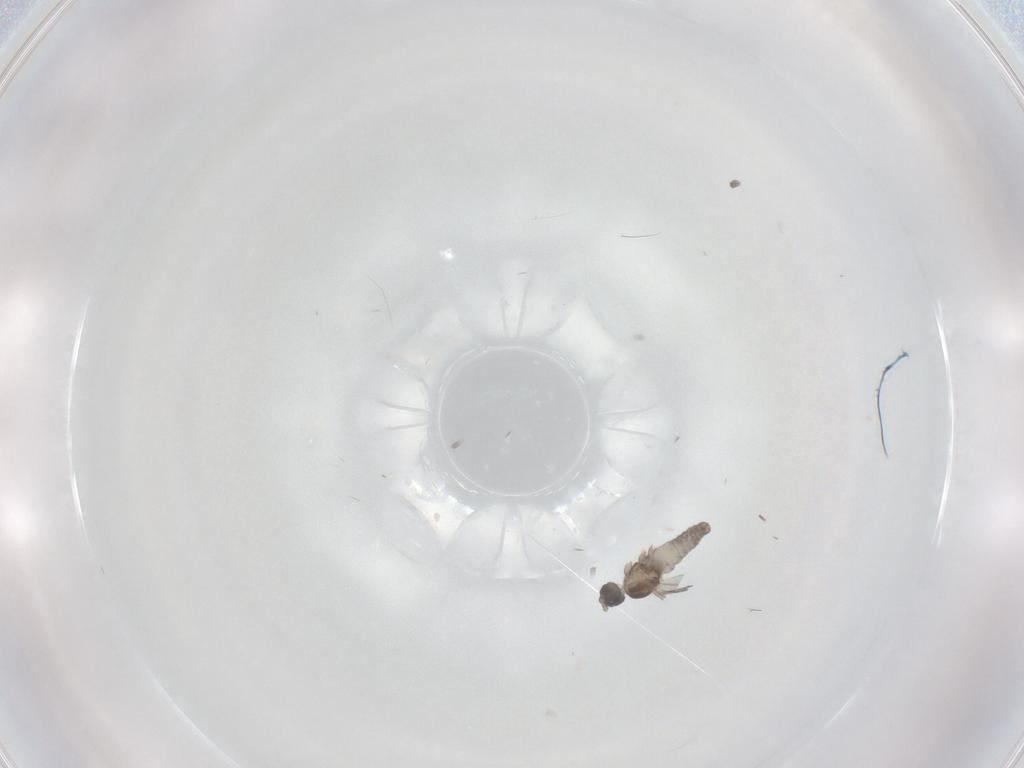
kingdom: Animalia
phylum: Arthropoda
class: Insecta
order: Diptera
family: Cecidomyiidae
